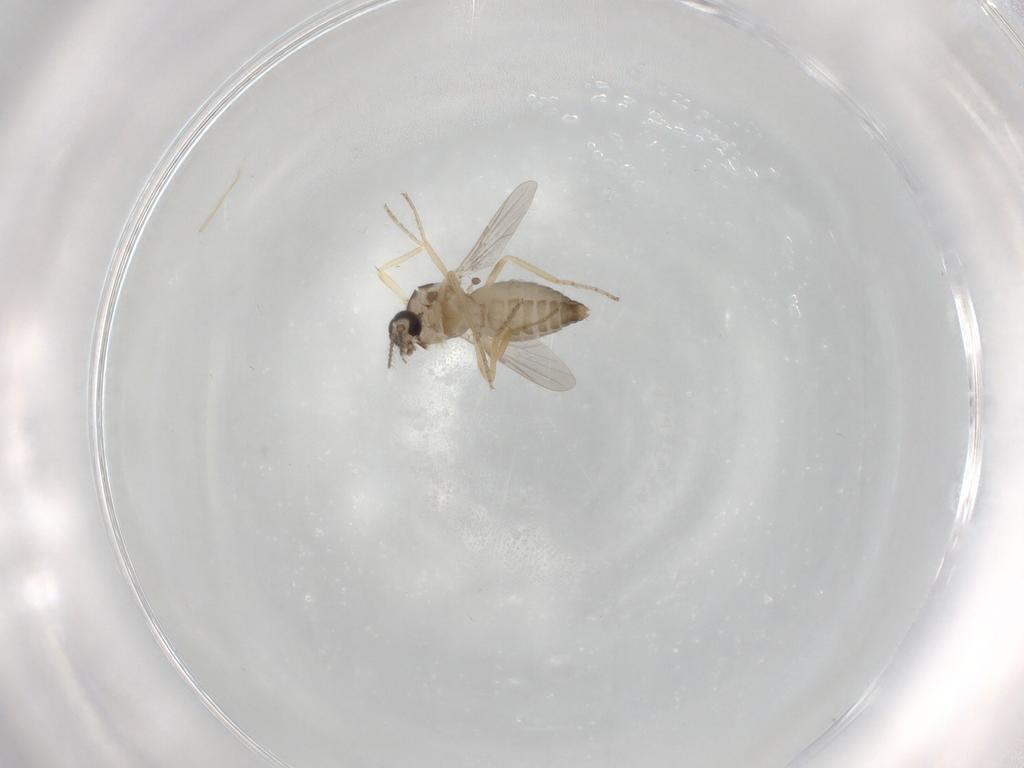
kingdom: Animalia
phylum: Arthropoda
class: Insecta
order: Diptera
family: Ceratopogonidae
